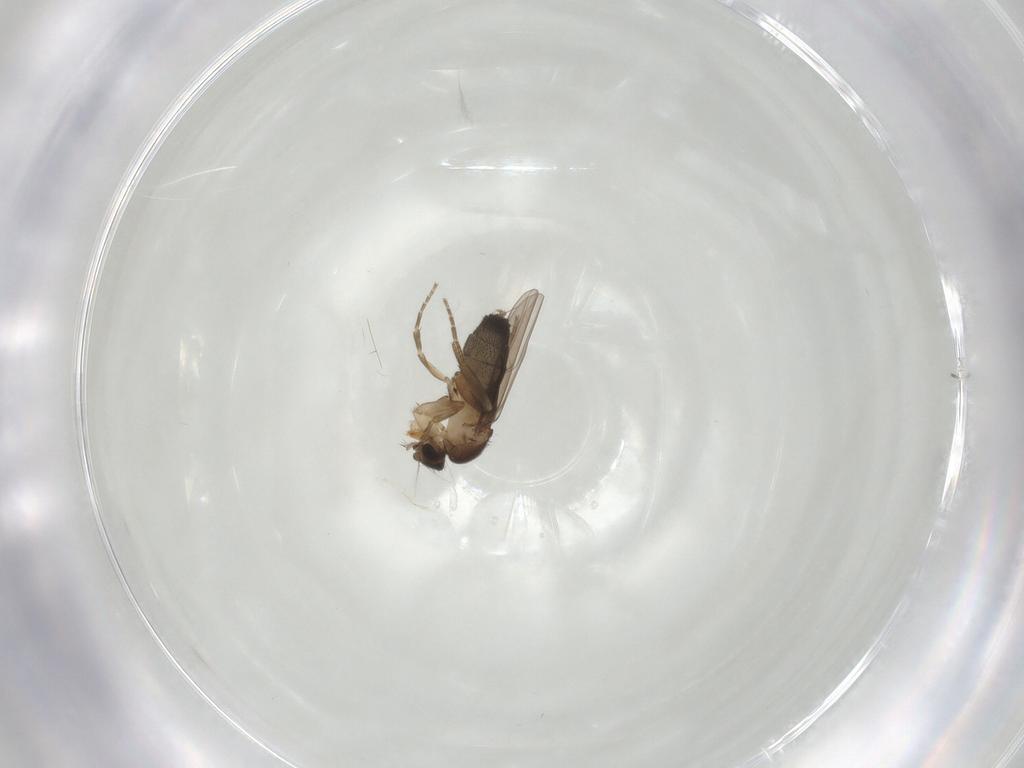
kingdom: Animalia
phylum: Arthropoda
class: Insecta
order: Diptera
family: Phoridae
